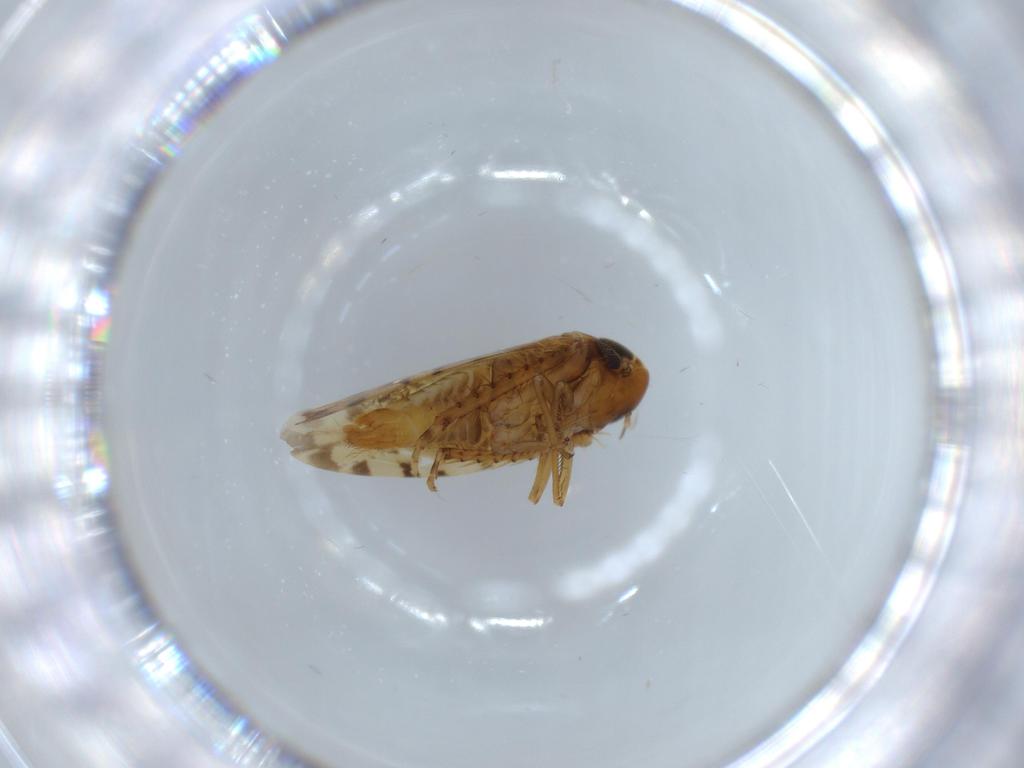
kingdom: Animalia
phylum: Arthropoda
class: Insecta
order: Hemiptera
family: Cicadellidae
